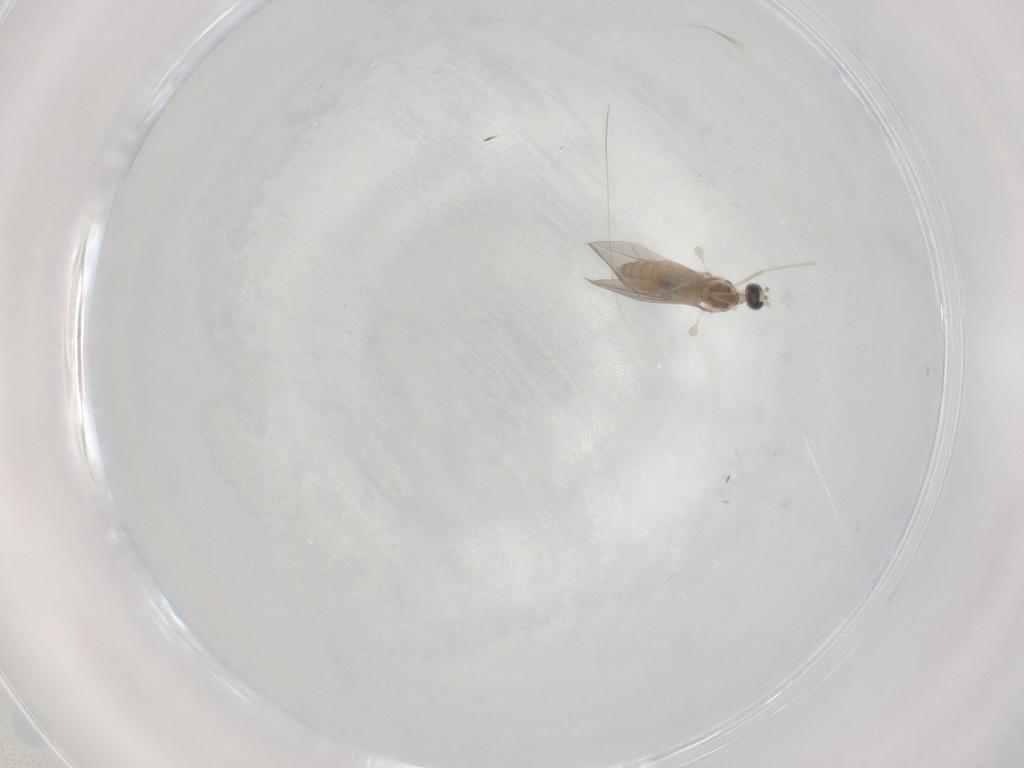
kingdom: Animalia
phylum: Arthropoda
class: Insecta
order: Diptera
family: Cecidomyiidae
